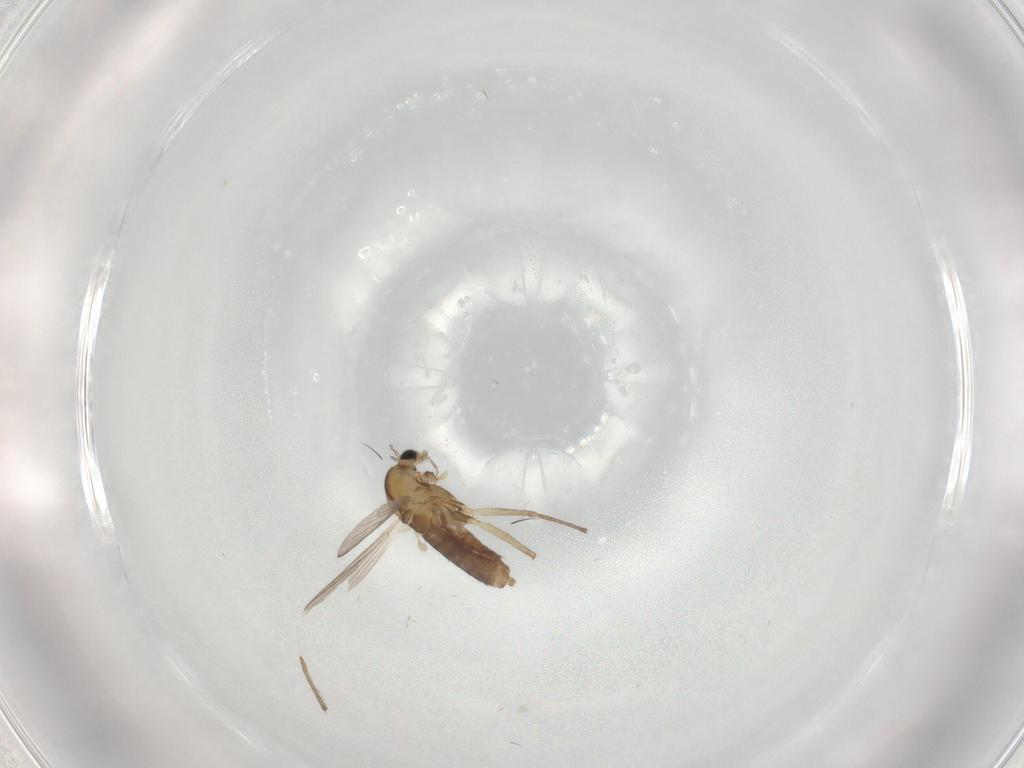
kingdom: Animalia
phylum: Arthropoda
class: Insecta
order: Diptera
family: Chironomidae
